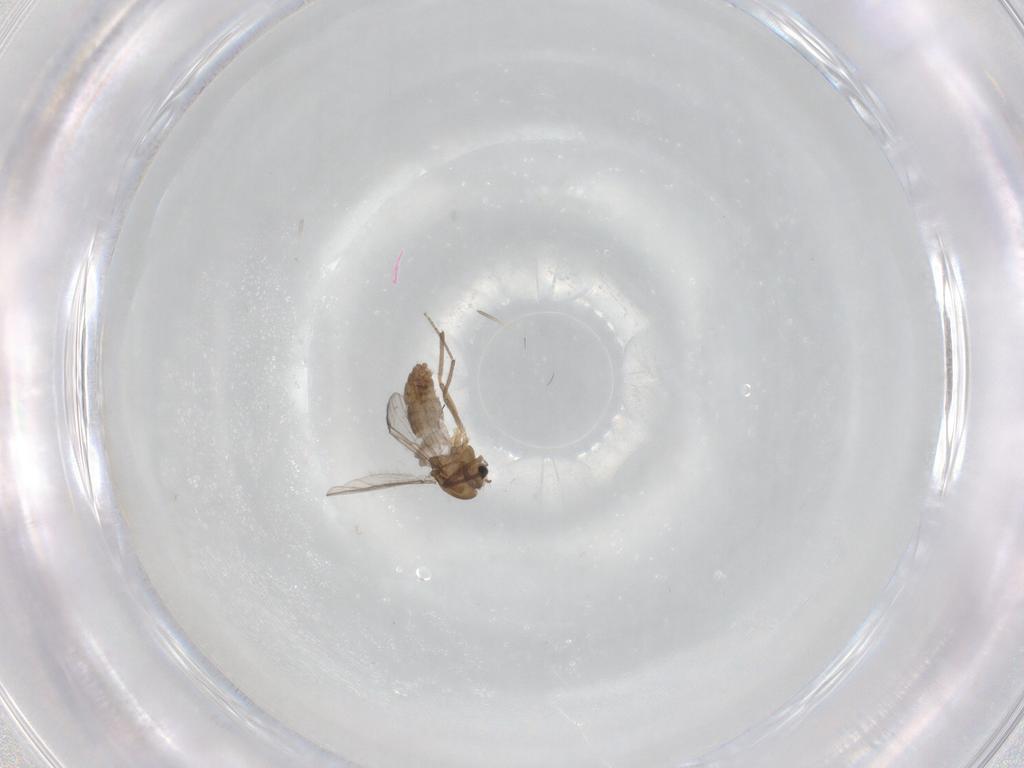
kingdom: Animalia
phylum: Arthropoda
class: Insecta
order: Diptera
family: Chironomidae
